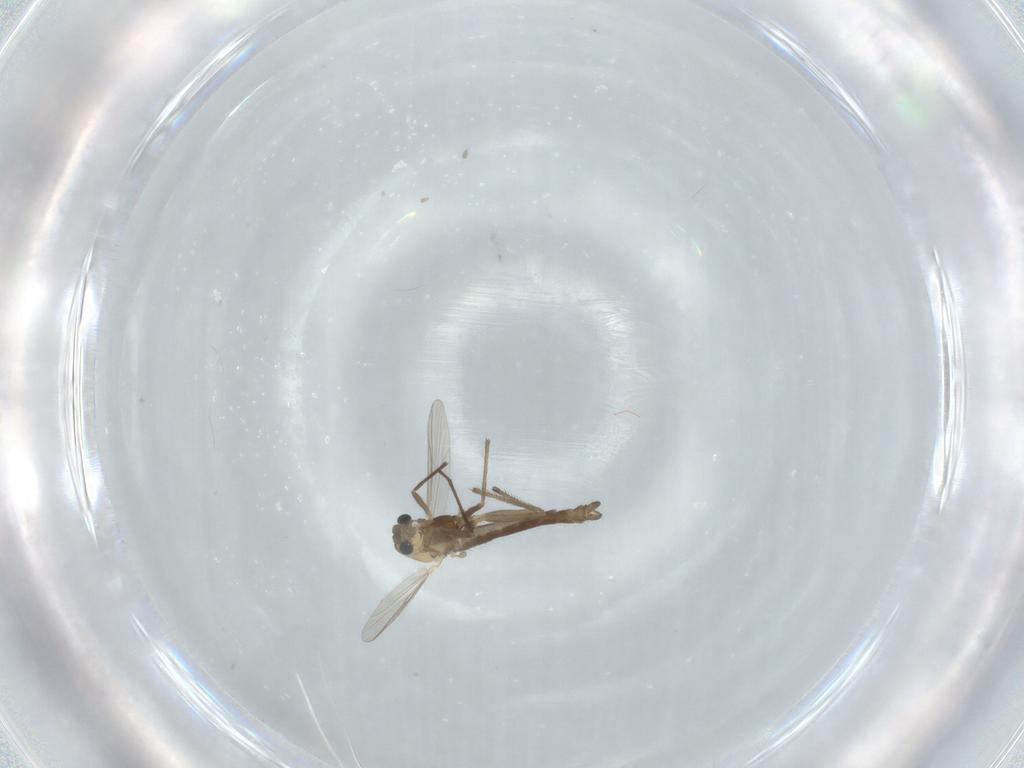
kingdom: Animalia
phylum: Arthropoda
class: Insecta
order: Diptera
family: Chironomidae
